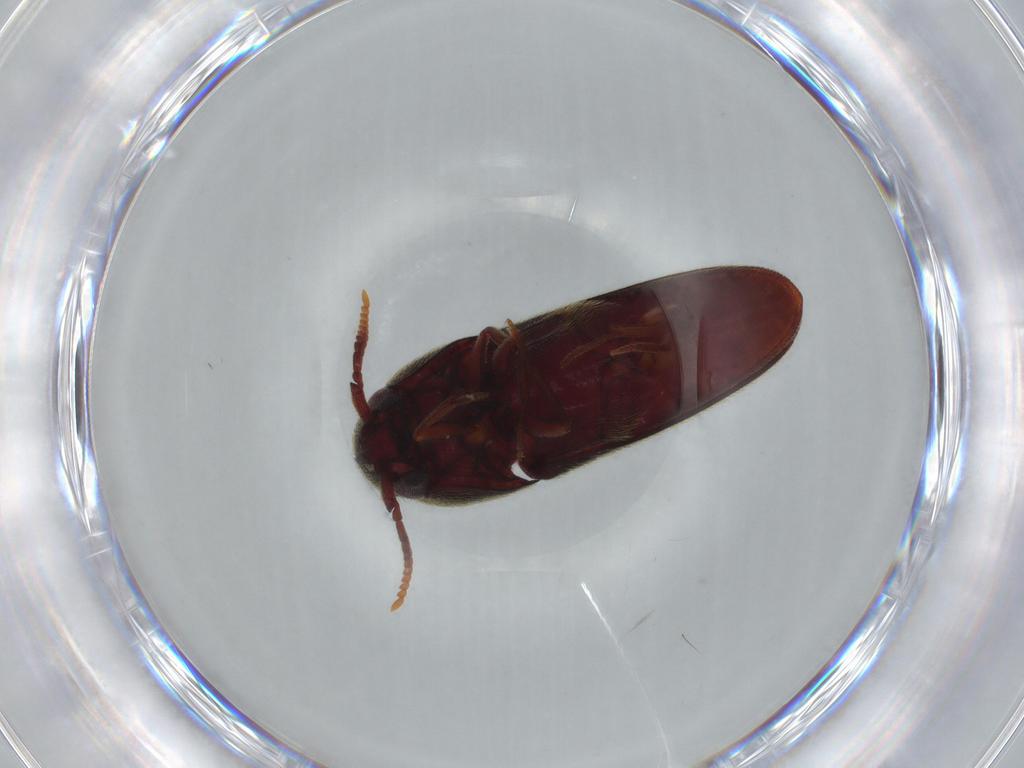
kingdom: Animalia
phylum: Arthropoda
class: Insecta
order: Coleoptera
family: Eucnemidae
